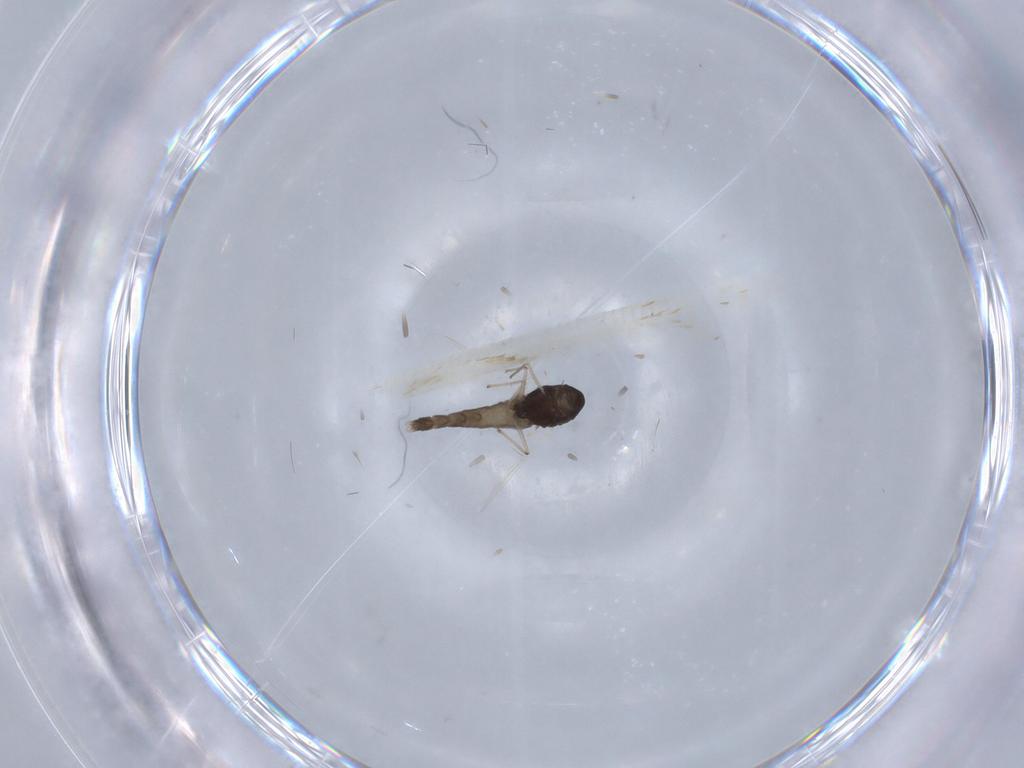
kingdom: Animalia
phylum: Arthropoda
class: Insecta
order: Diptera
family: Chironomidae
